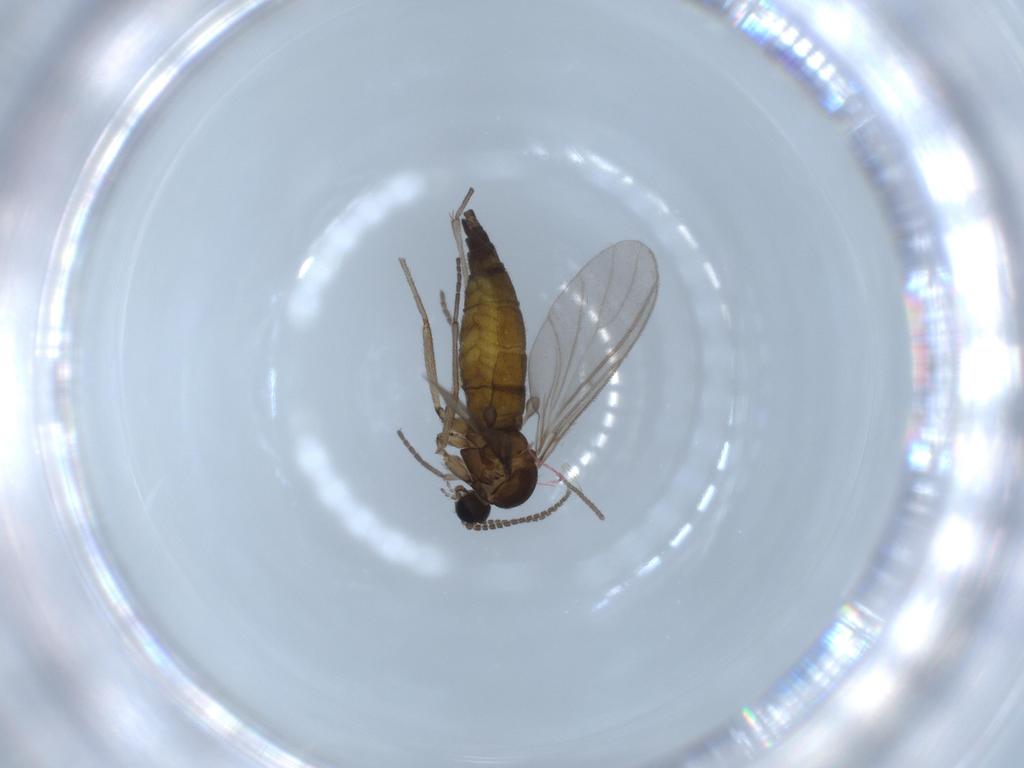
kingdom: Animalia
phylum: Arthropoda
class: Insecta
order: Diptera
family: Sciaridae
